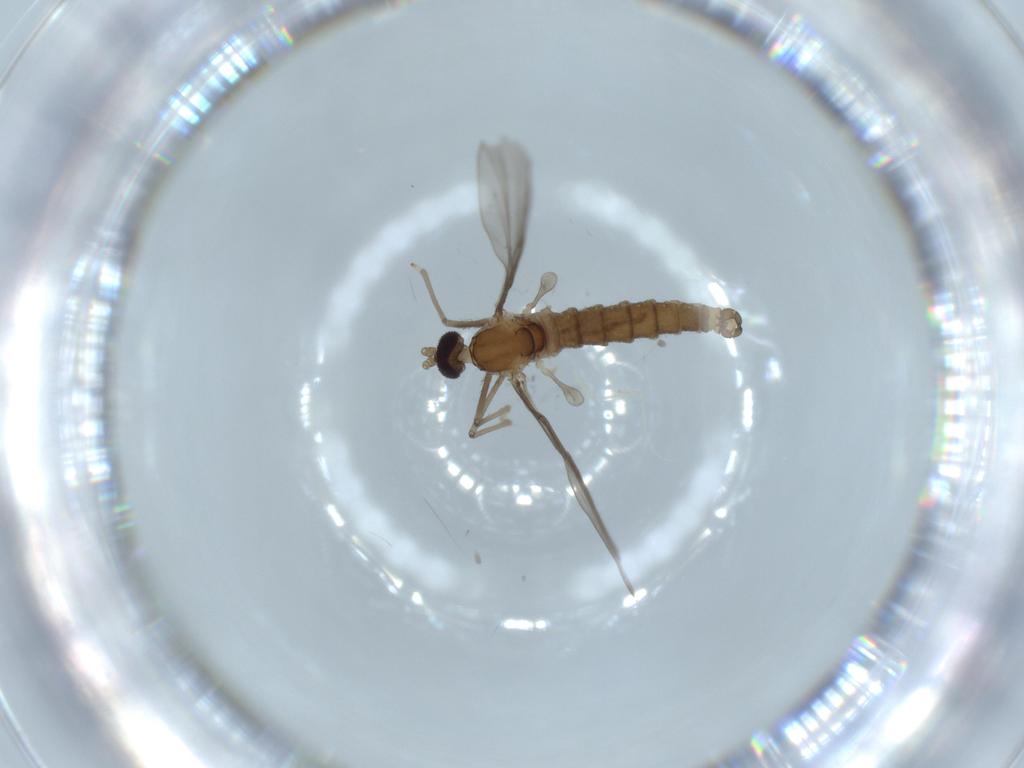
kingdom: Animalia
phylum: Arthropoda
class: Insecta
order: Diptera
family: Cecidomyiidae
